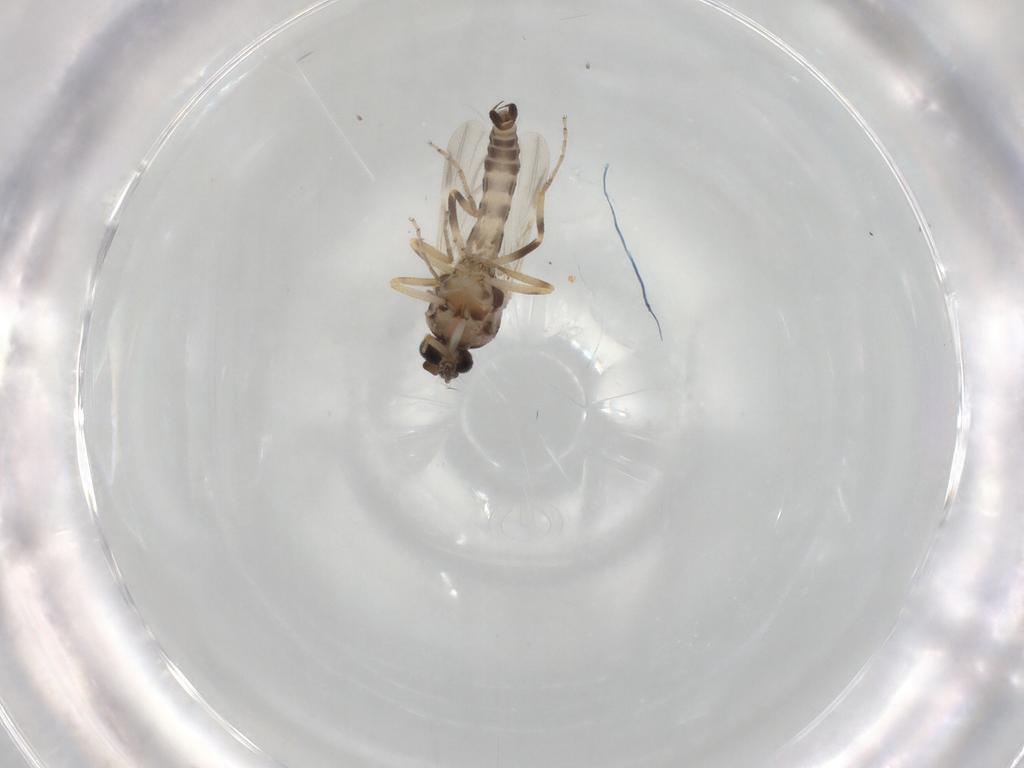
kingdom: Animalia
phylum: Arthropoda
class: Insecta
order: Diptera
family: Ceratopogonidae
